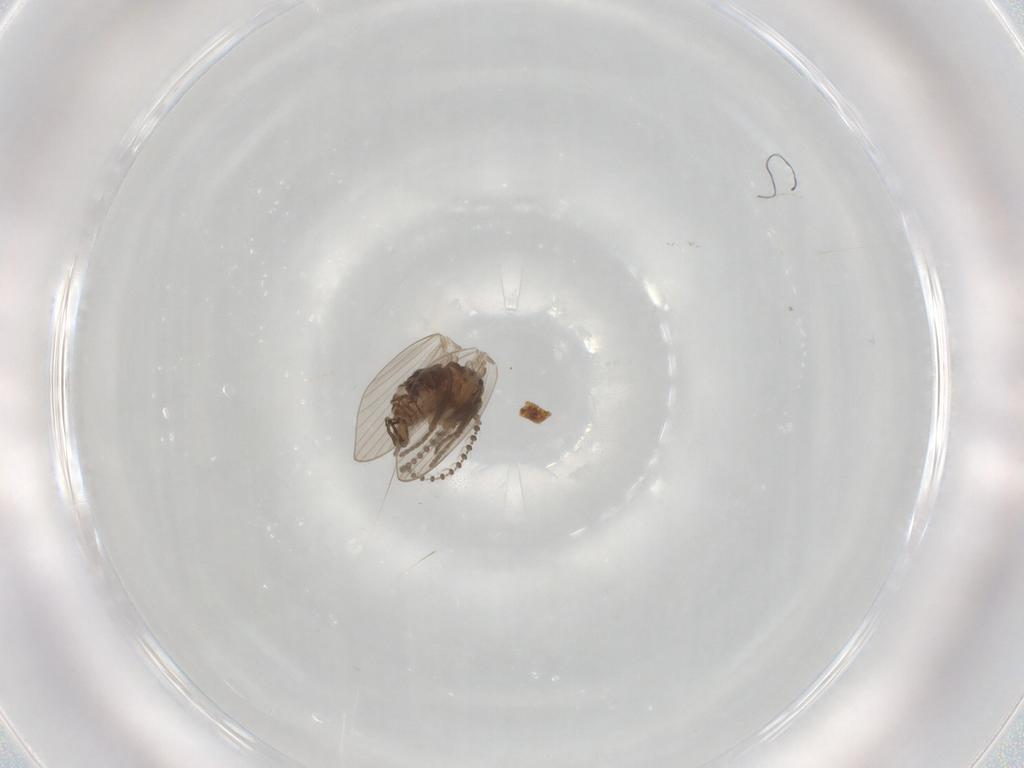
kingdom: Animalia
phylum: Arthropoda
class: Insecta
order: Diptera
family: Psychodidae
